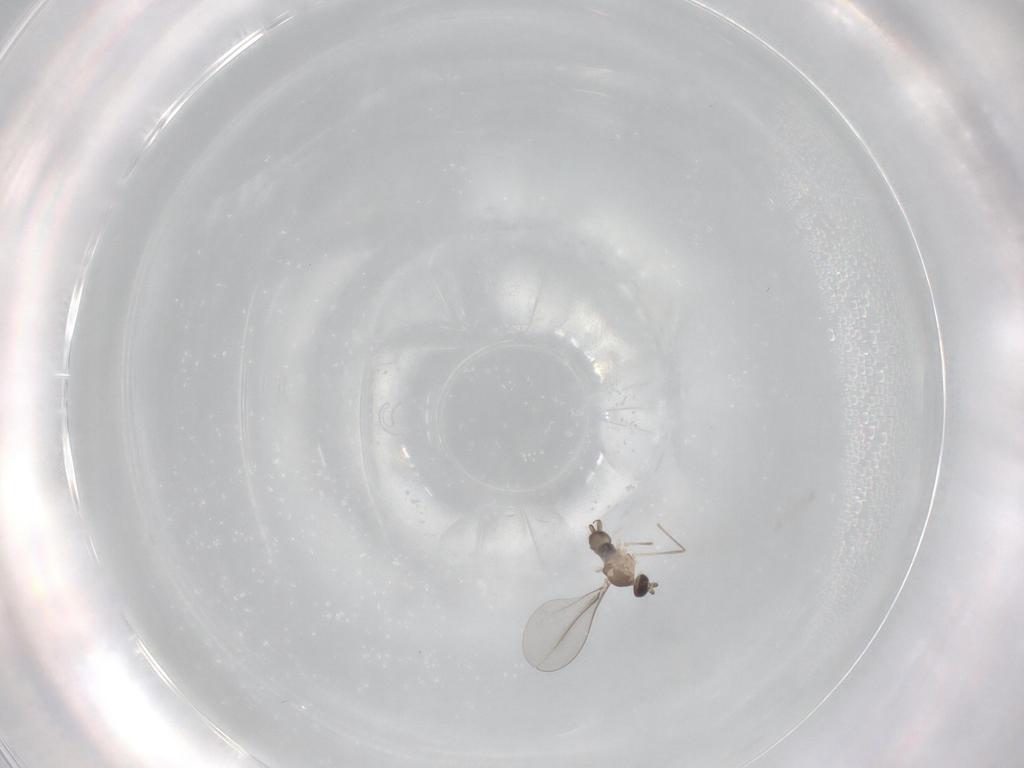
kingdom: Animalia
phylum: Arthropoda
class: Insecta
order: Diptera
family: Sciaridae
